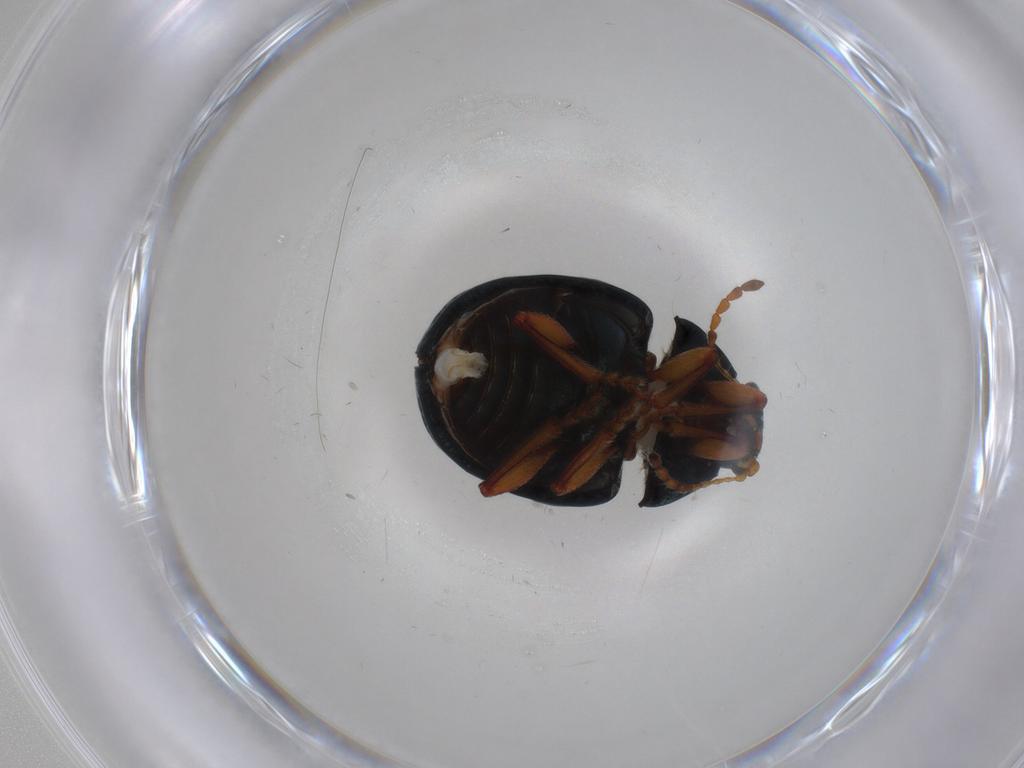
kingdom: Animalia
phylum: Arthropoda
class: Insecta
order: Coleoptera
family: Chrysomelidae
